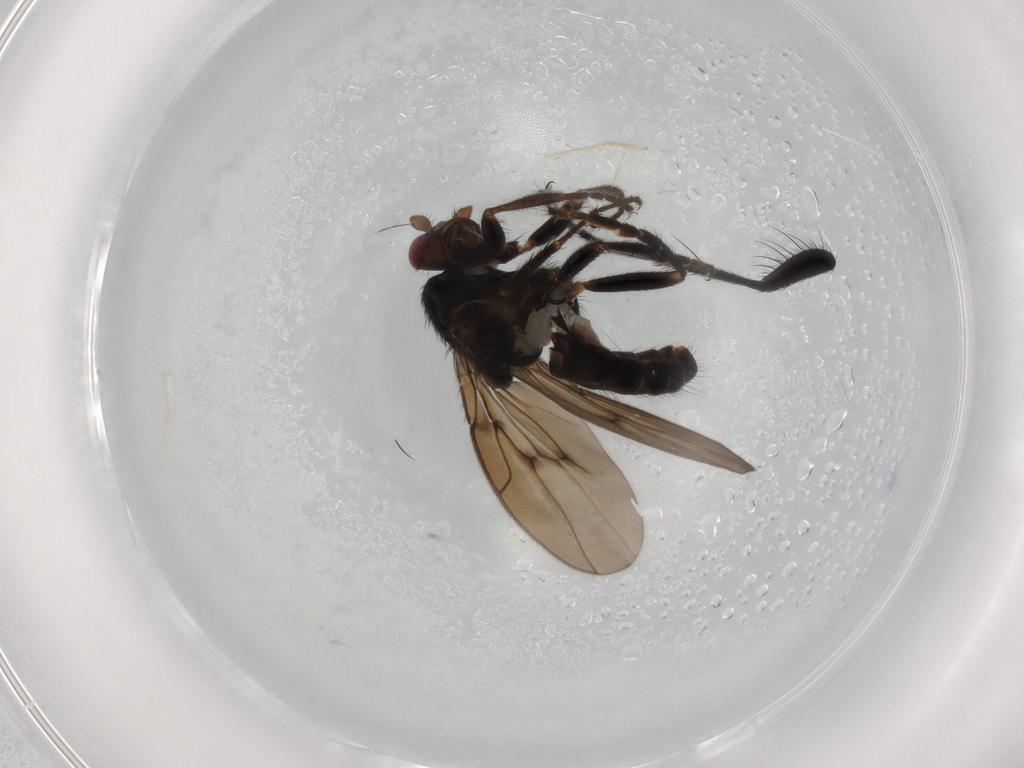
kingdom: Animalia
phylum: Arthropoda
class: Insecta
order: Diptera
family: Sphaeroceridae
